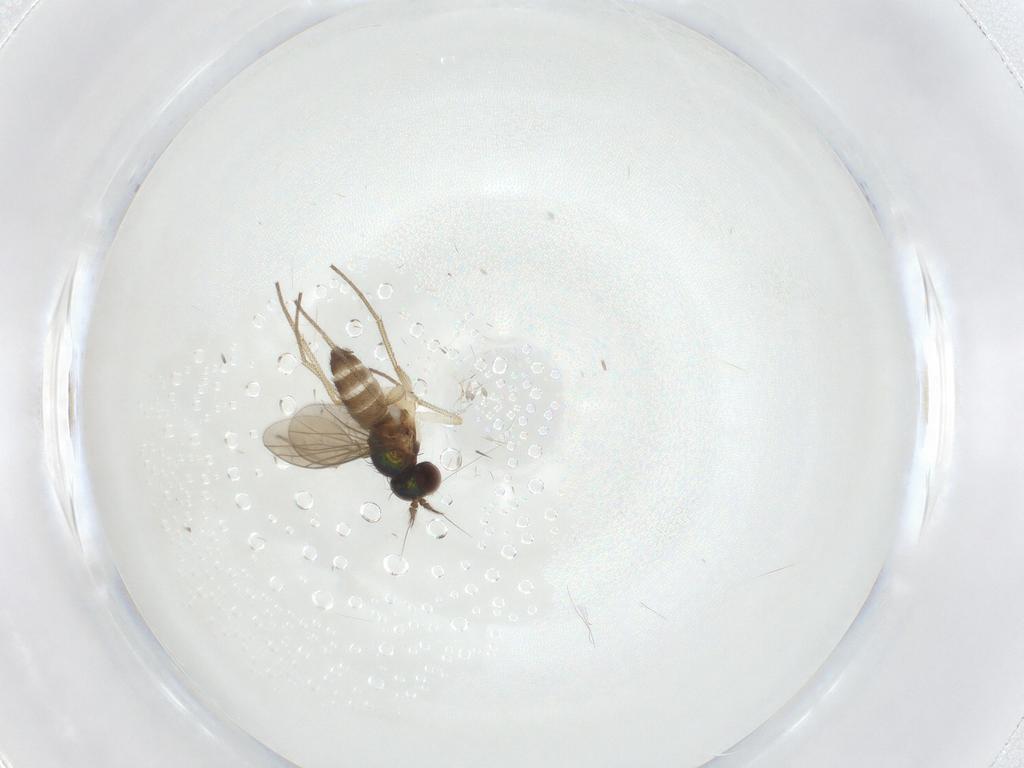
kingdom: Animalia
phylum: Arthropoda
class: Insecta
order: Diptera
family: Dolichopodidae
